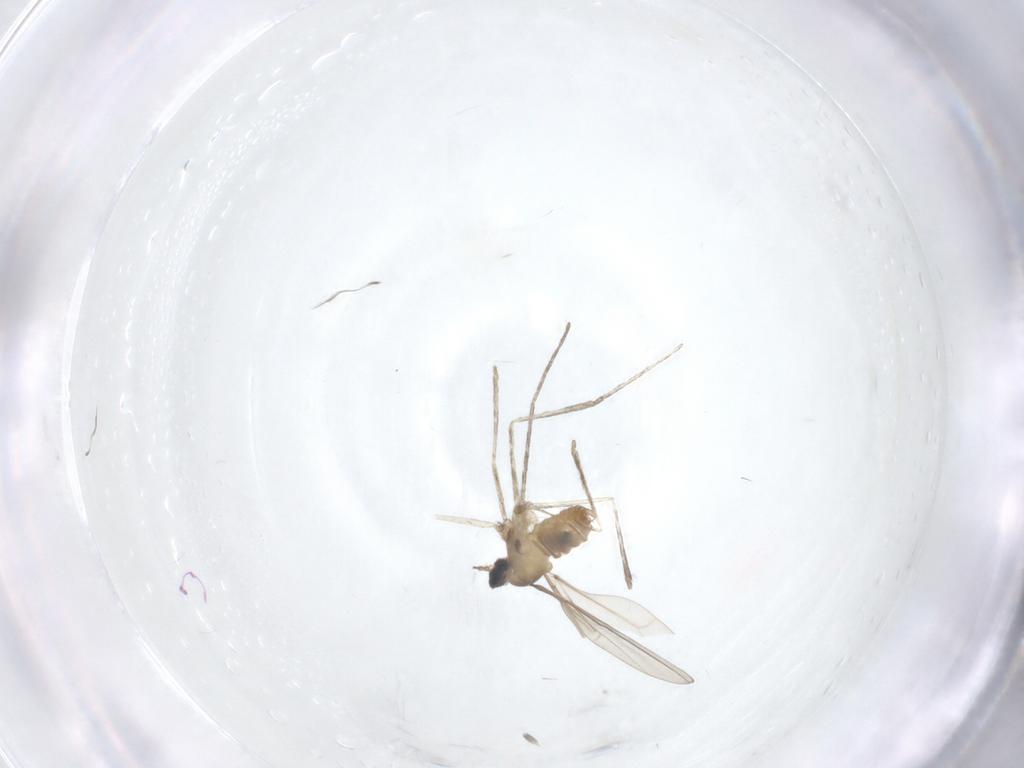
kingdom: Animalia
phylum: Arthropoda
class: Insecta
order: Diptera
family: Cecidomyiidae
